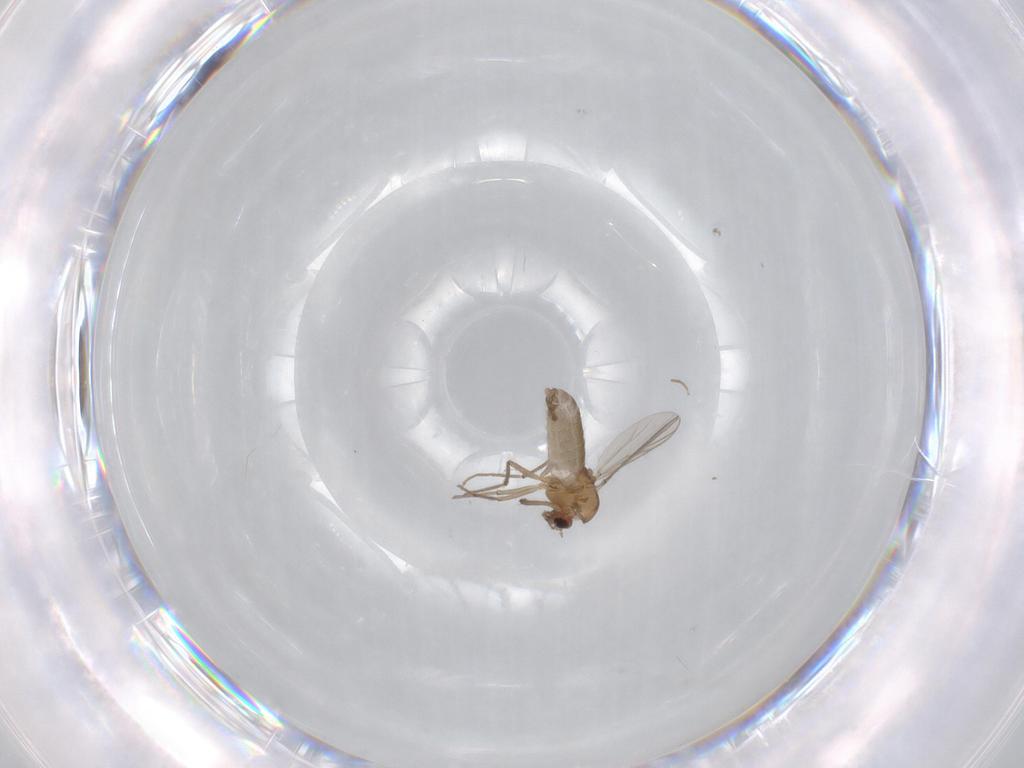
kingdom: Animalia
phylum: Arthropoda
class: Insecta
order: Diptera
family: Chironomidae
